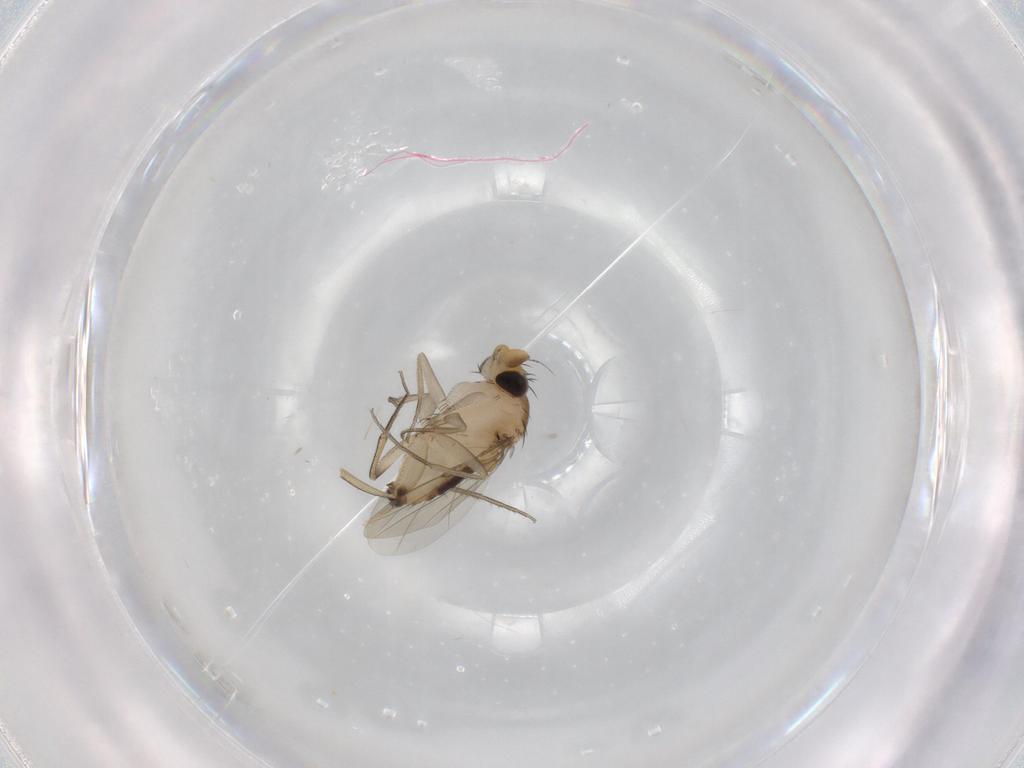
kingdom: Animalia
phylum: Arthropoda
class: Insecta
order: Diptera
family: Phoridae
